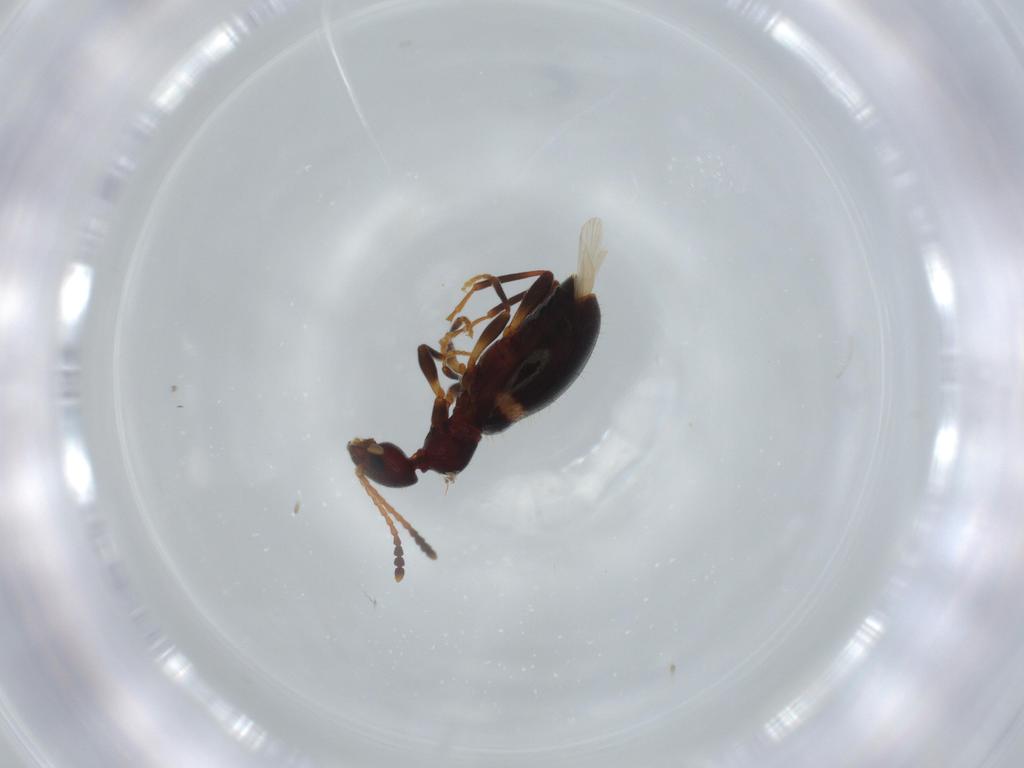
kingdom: Animalia
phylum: Arthropoda
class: Insecta
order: Coleoptera
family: Anthicidae
